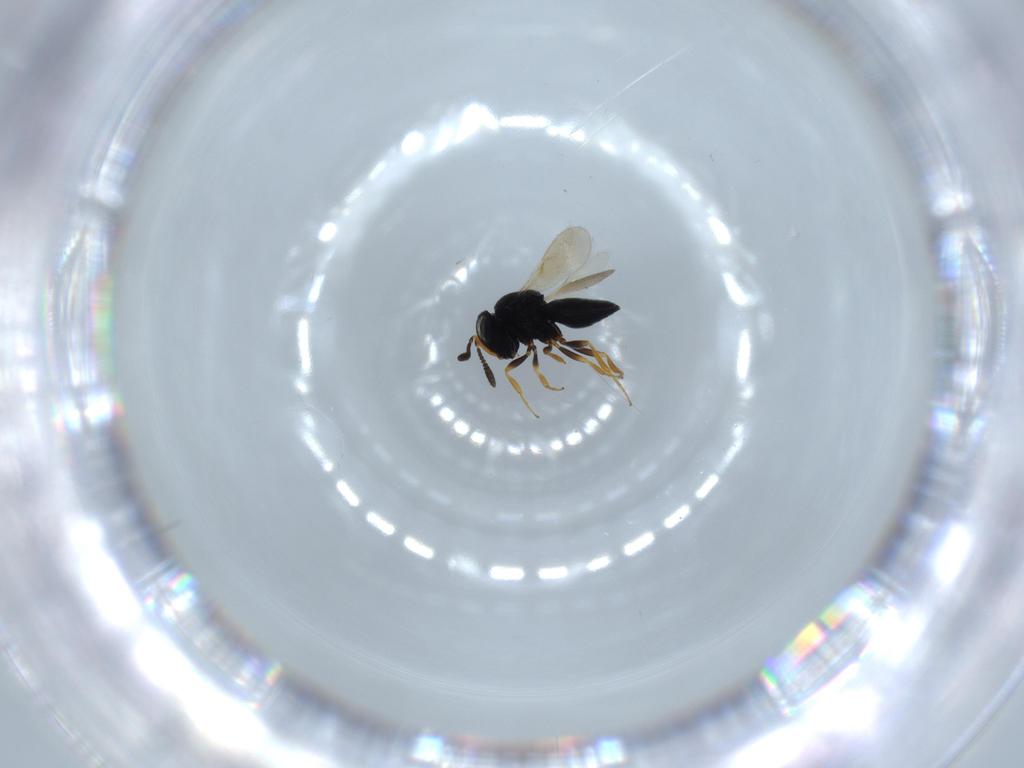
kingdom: Animalia
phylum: Arthropoda
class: Insecta
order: Hymenoptera
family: Scelionidae
